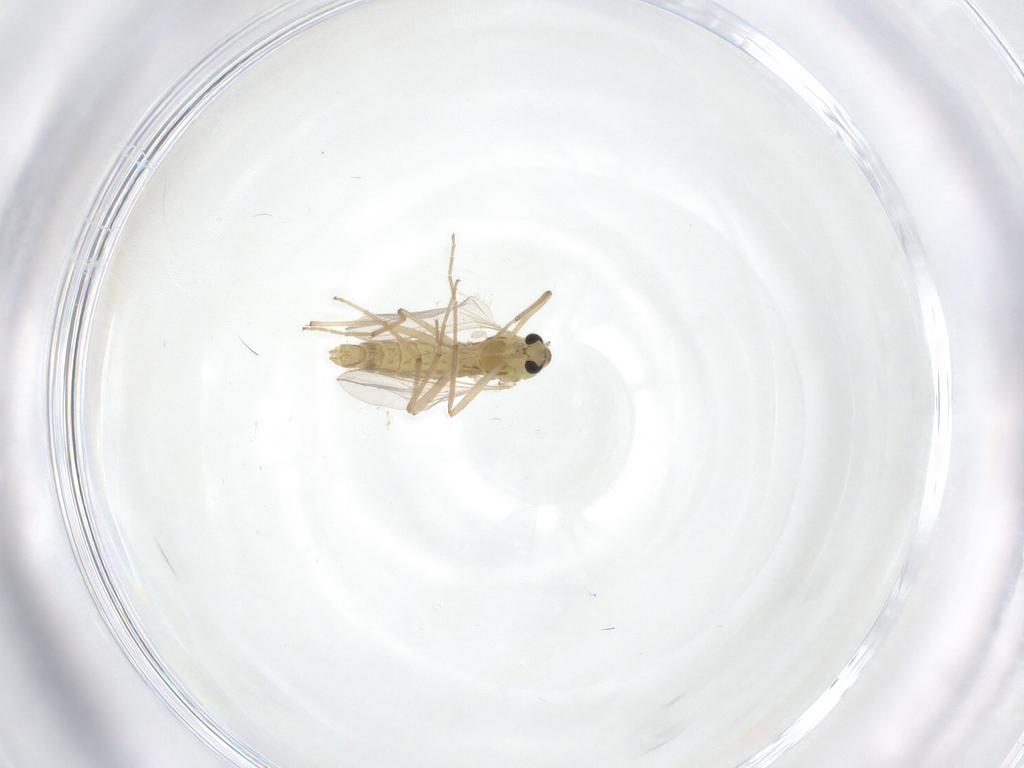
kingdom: Animalia
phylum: Arthropoda
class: Insecta
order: Diptera
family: Chironomidae
